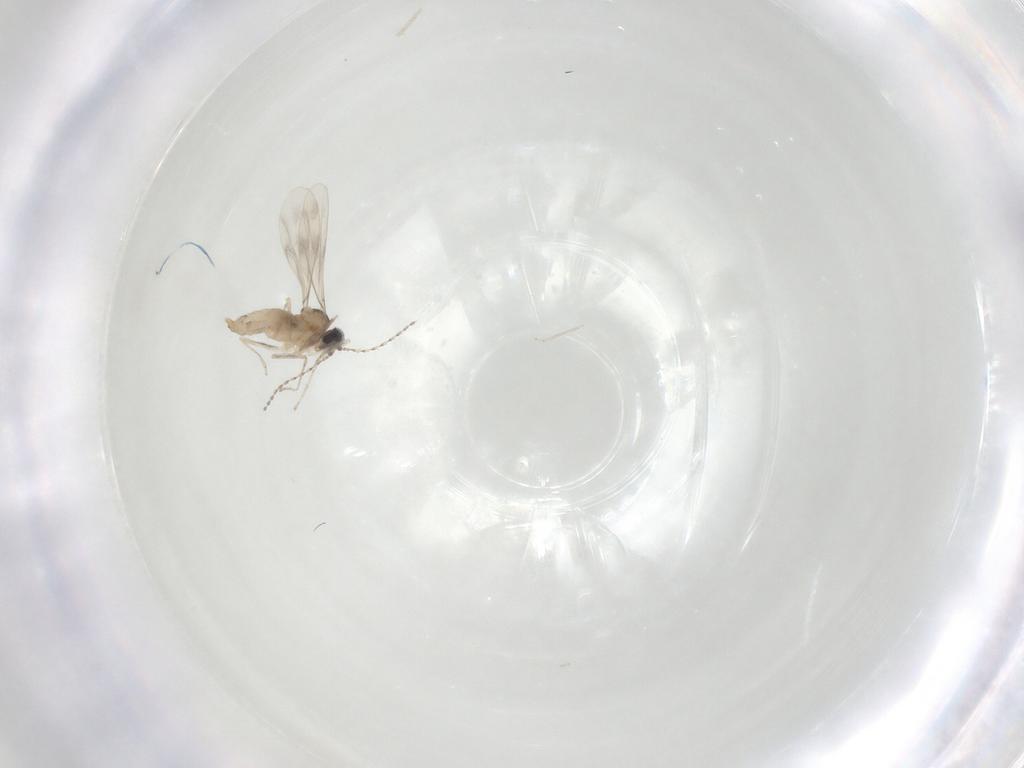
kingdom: Animalia
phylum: Arthropoda
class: Insecta
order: Diptera
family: Cecidomyiidae
